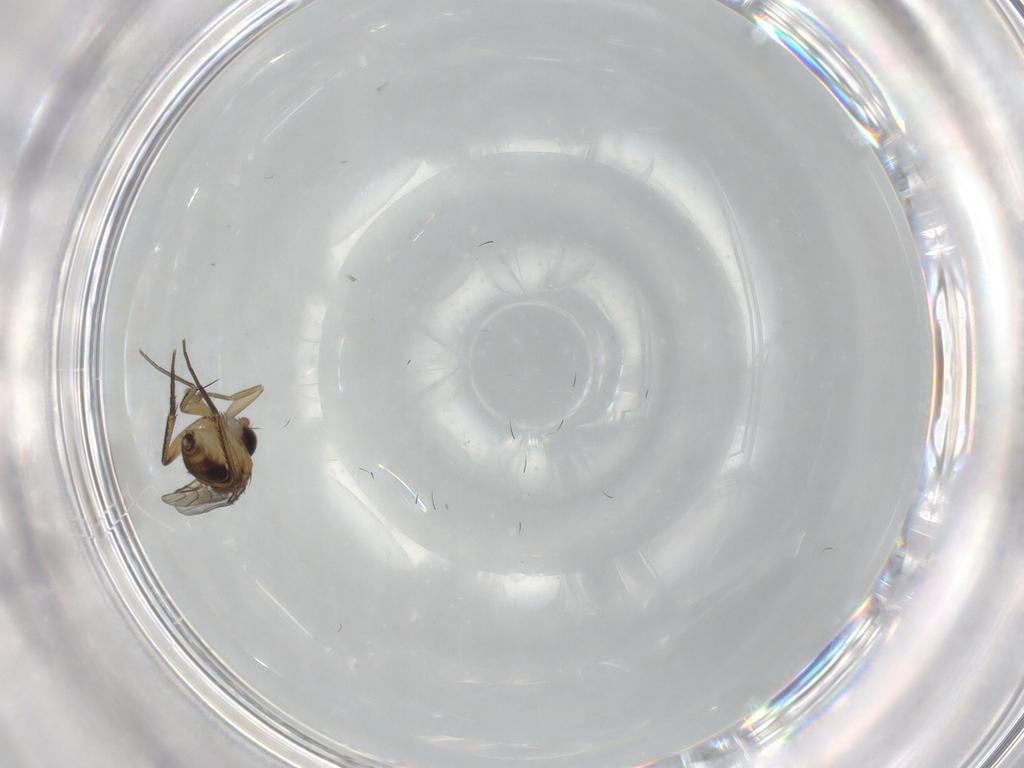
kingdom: Animalia
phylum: Arthropoda
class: Insecta
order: Diptera
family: Phoridae
